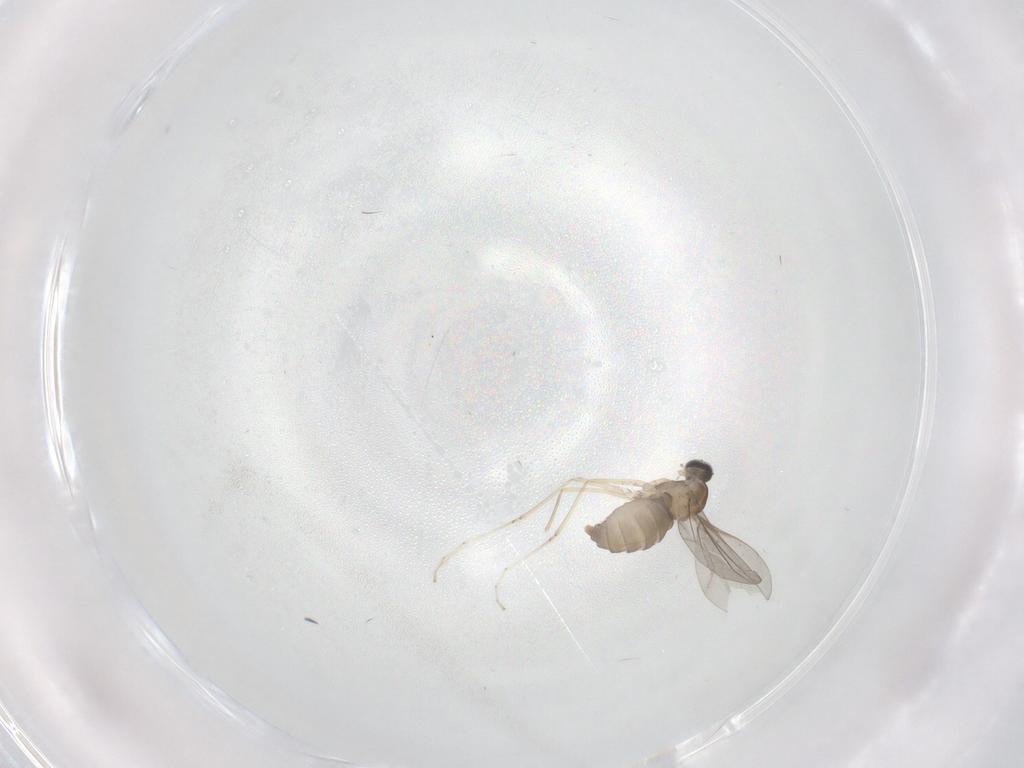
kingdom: Animalia
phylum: Arthropoda
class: Insecta
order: Diptera
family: Cecidomyiidae
